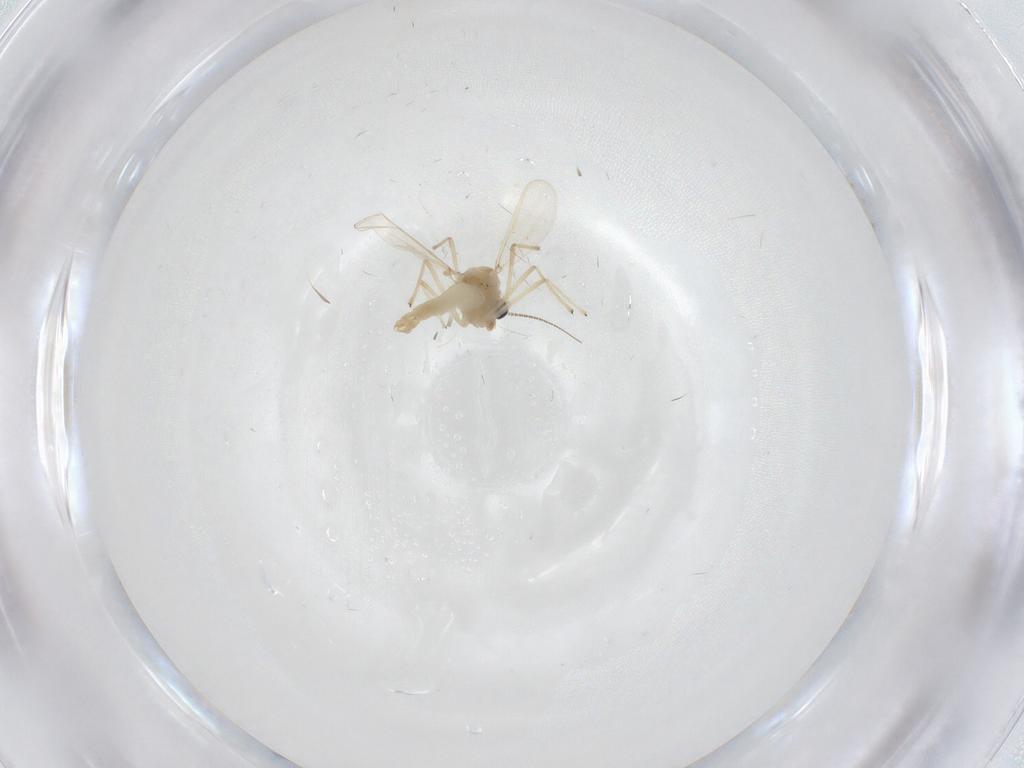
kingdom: Animalia
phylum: Arthropoda
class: Insecta
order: Diptera
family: Chironomidae
